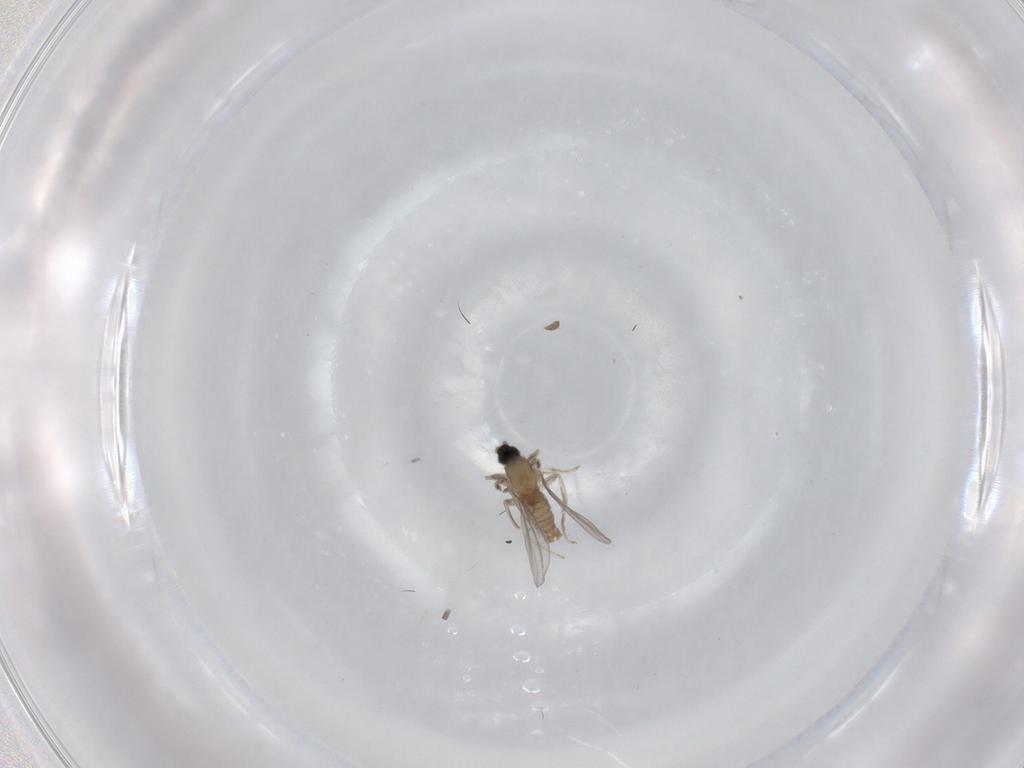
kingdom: Animalia
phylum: Arthropoda
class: Insecta
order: Diptera
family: Cecidomyiidae
